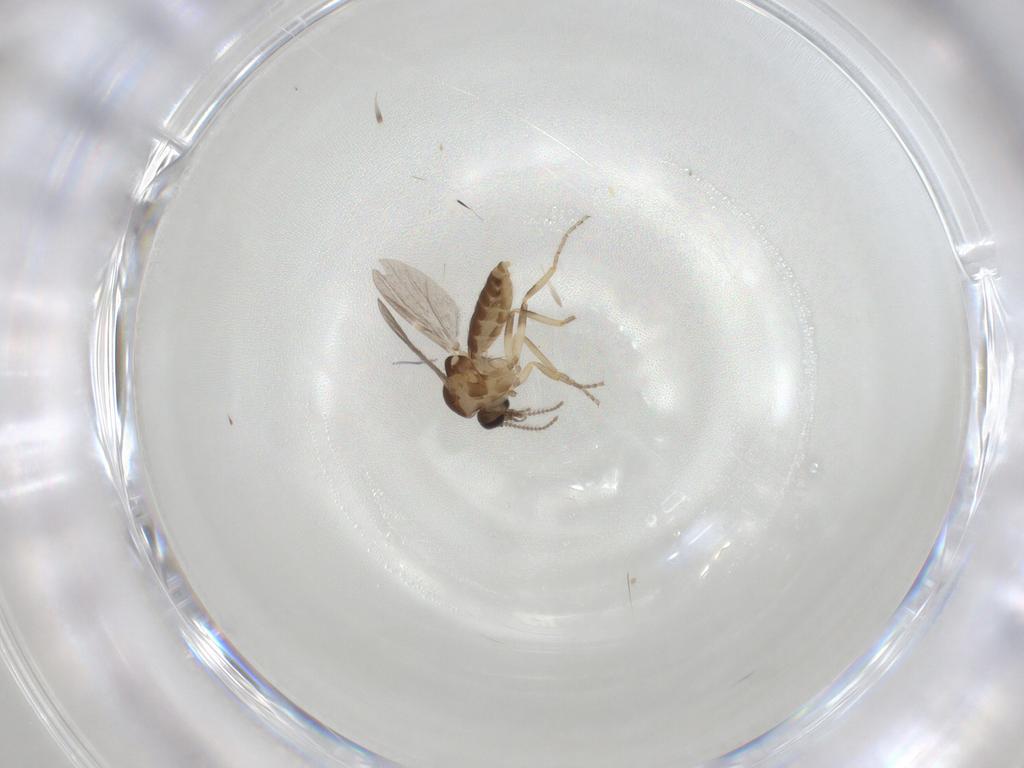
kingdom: Animalia
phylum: Arthropoda
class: Insecta
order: Diptera
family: Ceratopogonidae
